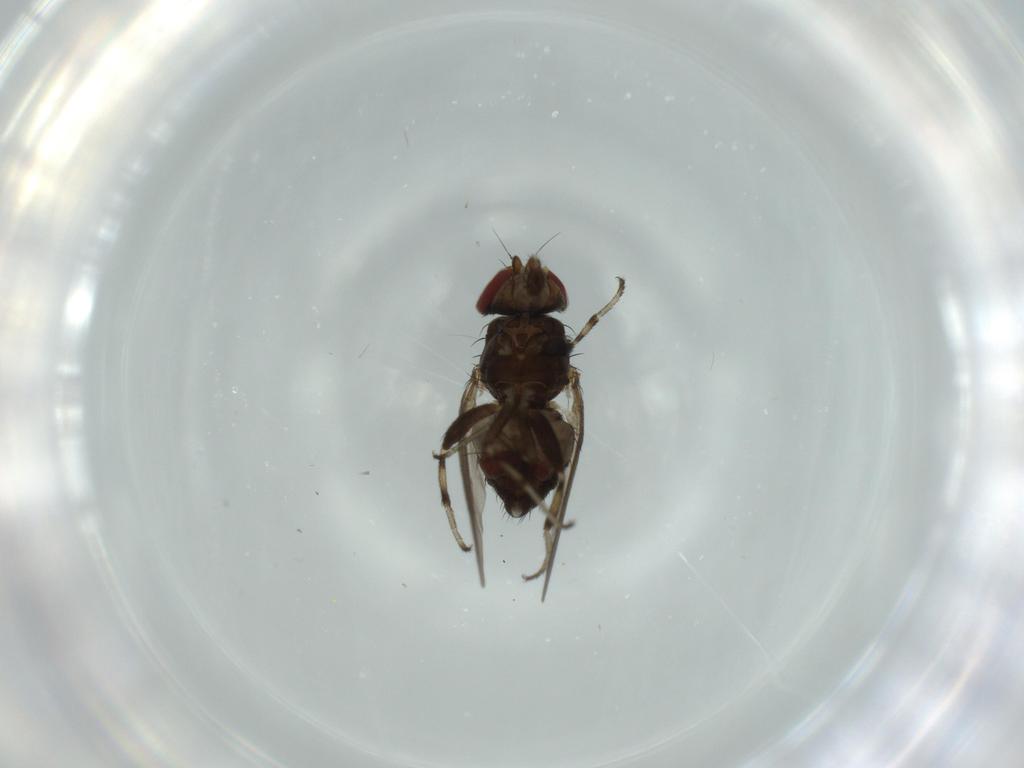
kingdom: Animalia
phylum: Arthropoda
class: Insecta
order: Diptera
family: Heleomyzidae
